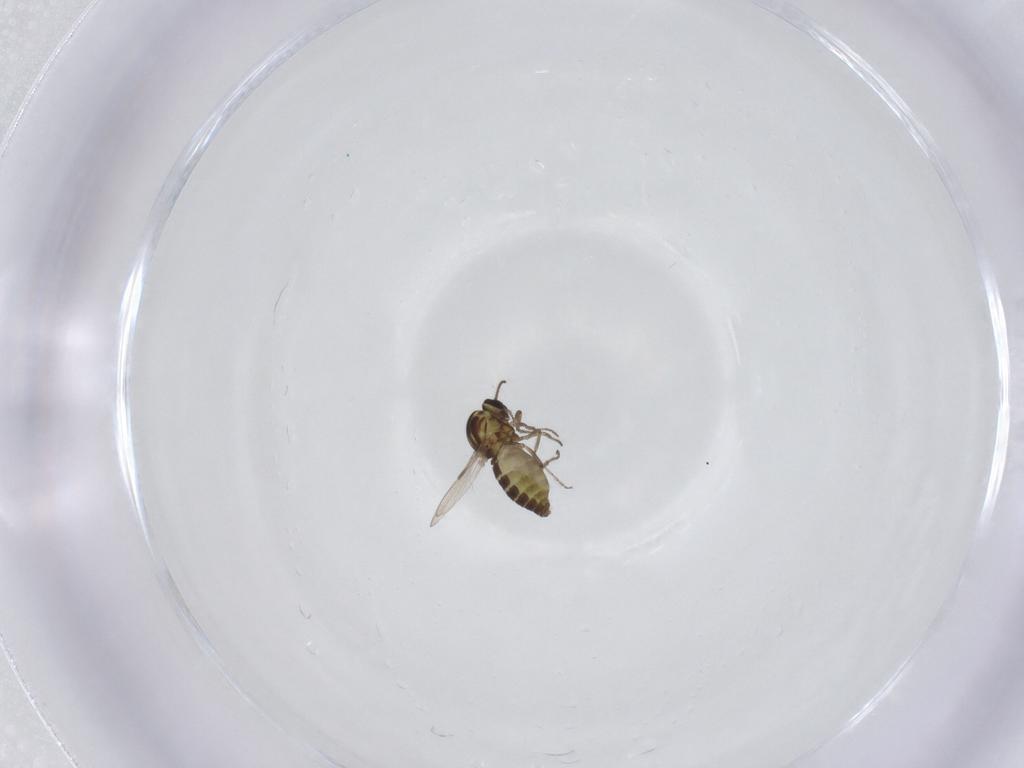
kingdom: Animalia
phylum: Arthropoda
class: Insecta
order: Diptera
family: Ceratopogonidae
